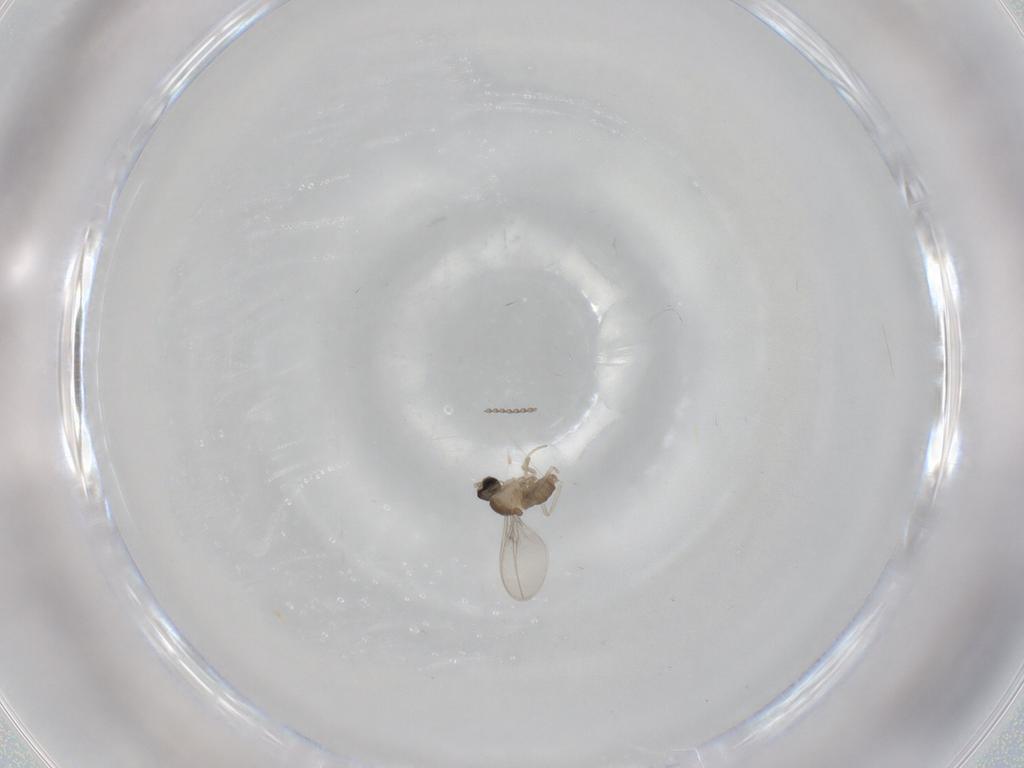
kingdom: Animalia
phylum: Arthropoda
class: Insecta
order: Diptera
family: Cecidomyiidae
